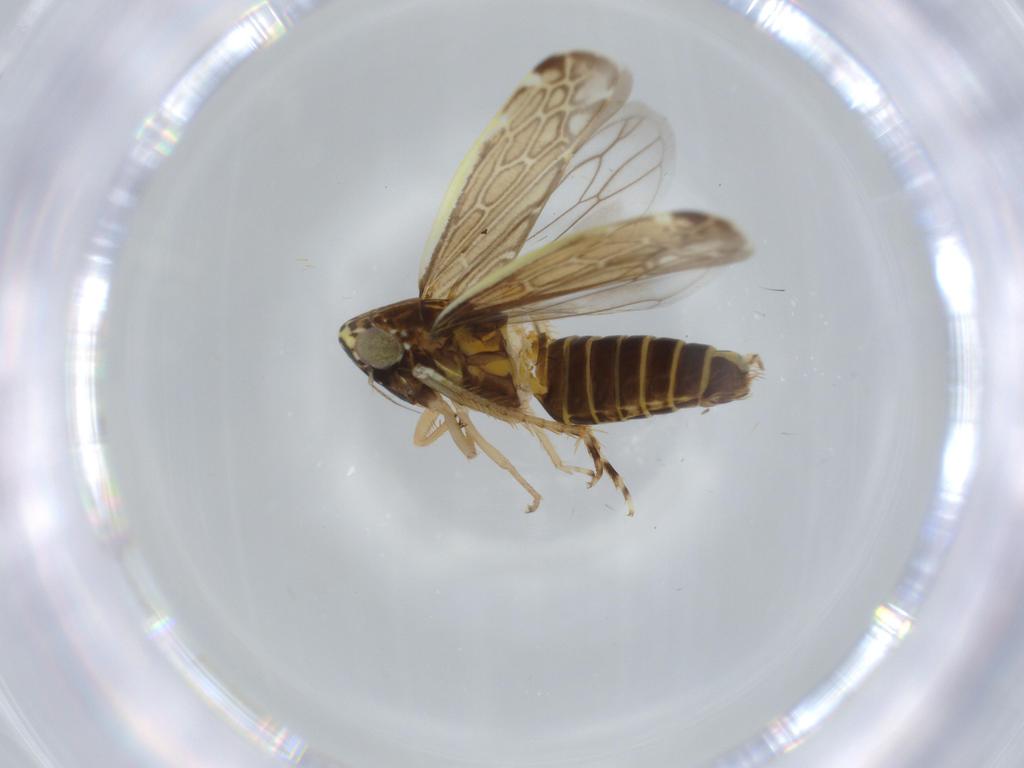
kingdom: Animalia
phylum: Arthropoda
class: Insecta
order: Hemiptera
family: Cicadellidae
